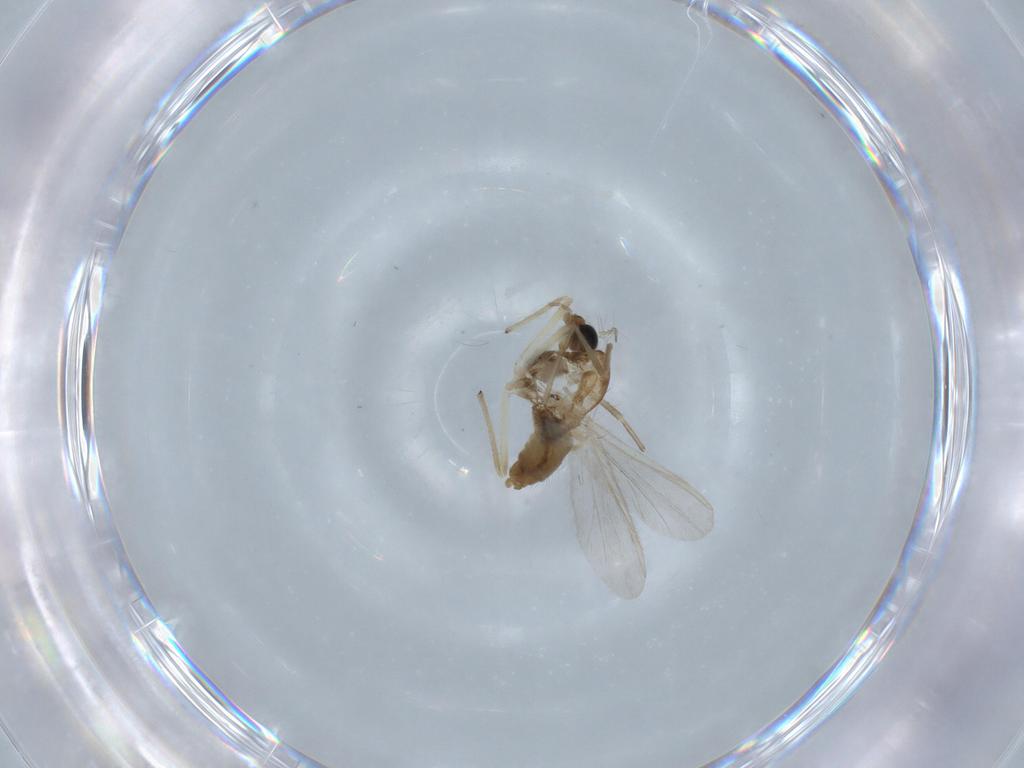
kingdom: Animalia
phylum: Arthropoda
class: Insecta
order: Diptera
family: Chironomidae
